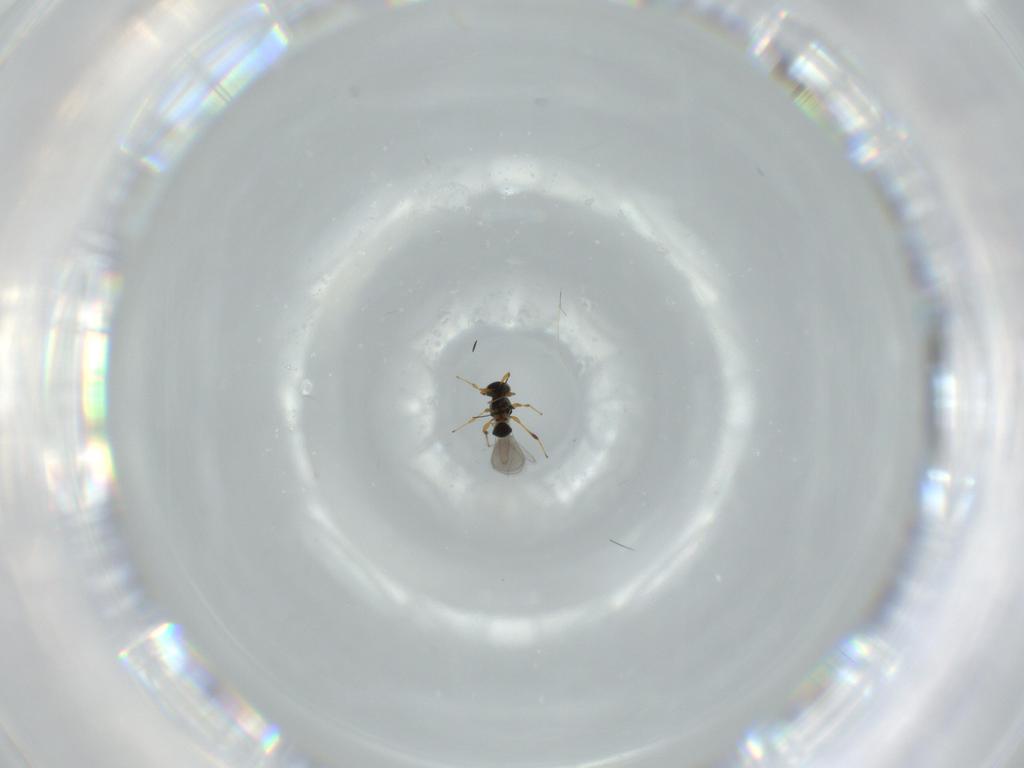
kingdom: Animalia
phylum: Arthropoda
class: Insecta
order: Hymenoptera
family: Platygastridae
